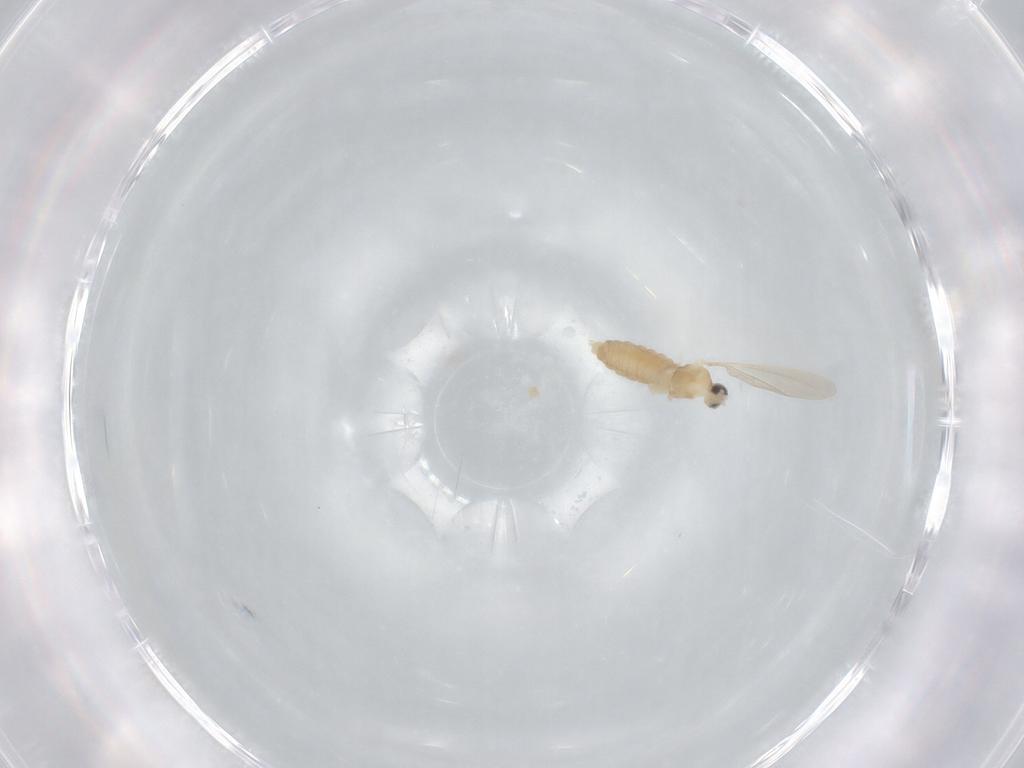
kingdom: Animalia
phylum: Arthropoda
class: Insecta
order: Diptera
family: Cecidomyiidae
